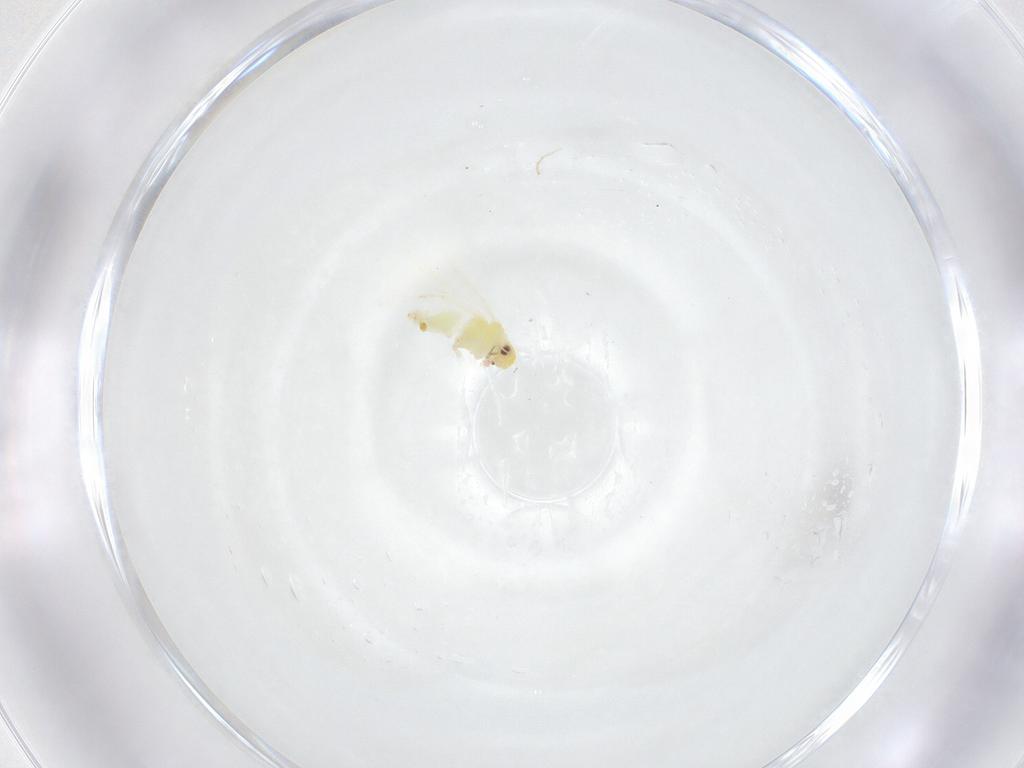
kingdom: Animalia
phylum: Arthropoda
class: Insecta
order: Hemiptera
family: Aleyrodidae
